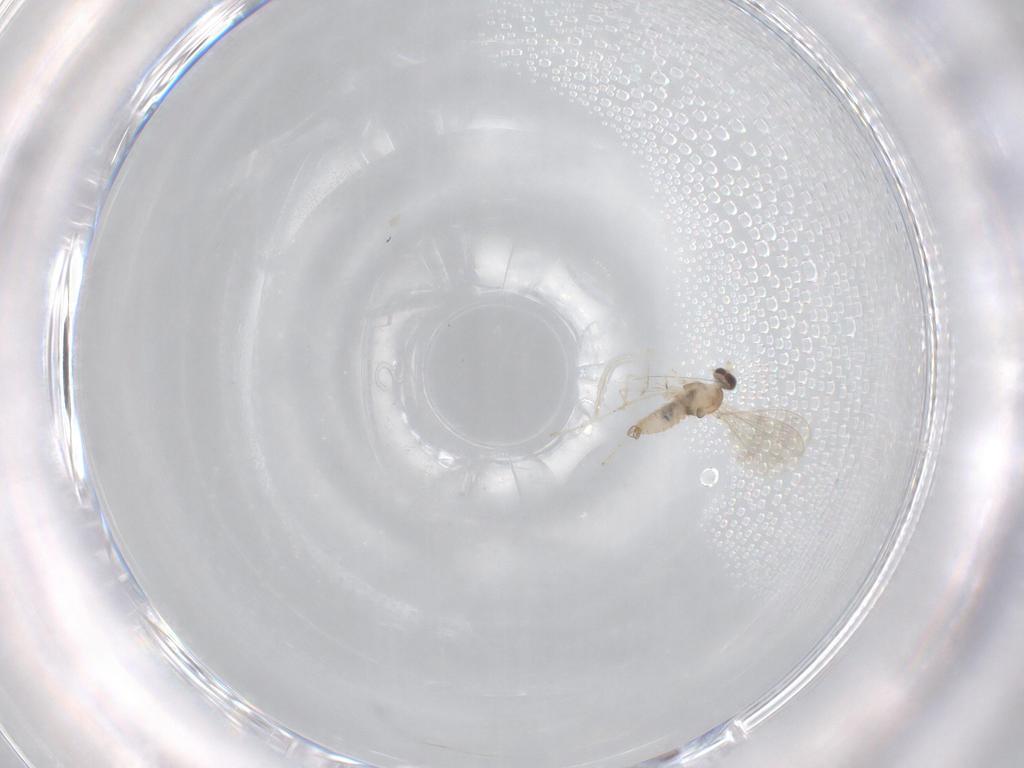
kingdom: Animalia
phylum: Arthropoda
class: Insecta
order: Diptera
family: Cecidomyiidae
